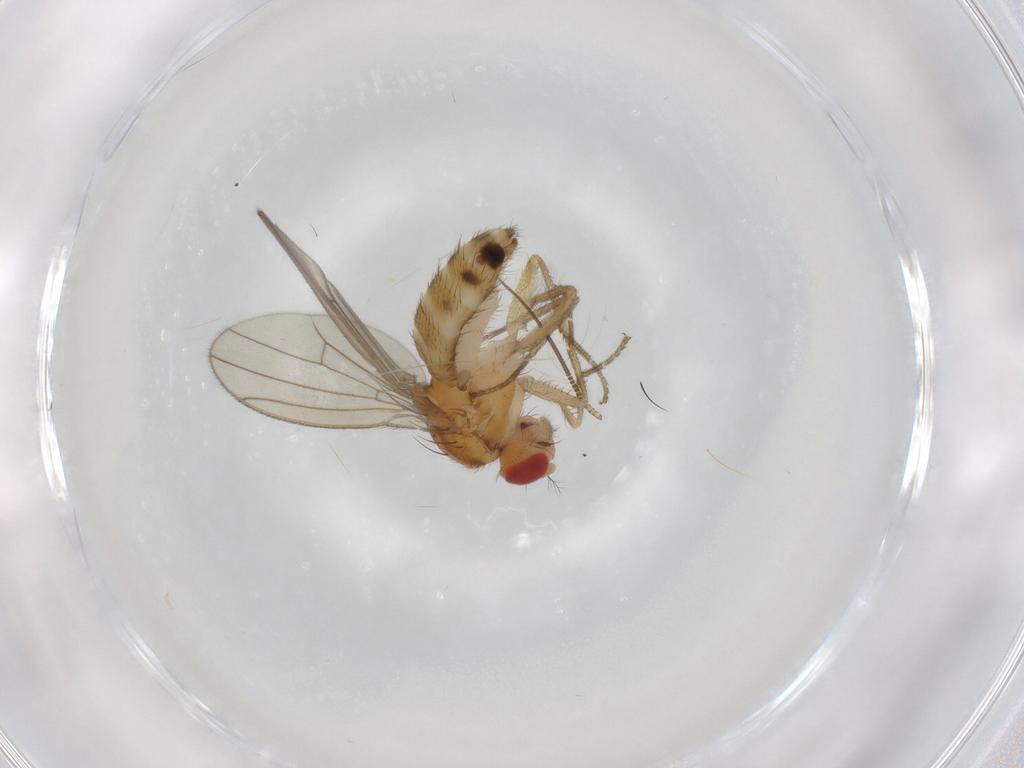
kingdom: Animalia
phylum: Arthropoda
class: Insecta
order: Diptera
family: Drosophilidae
